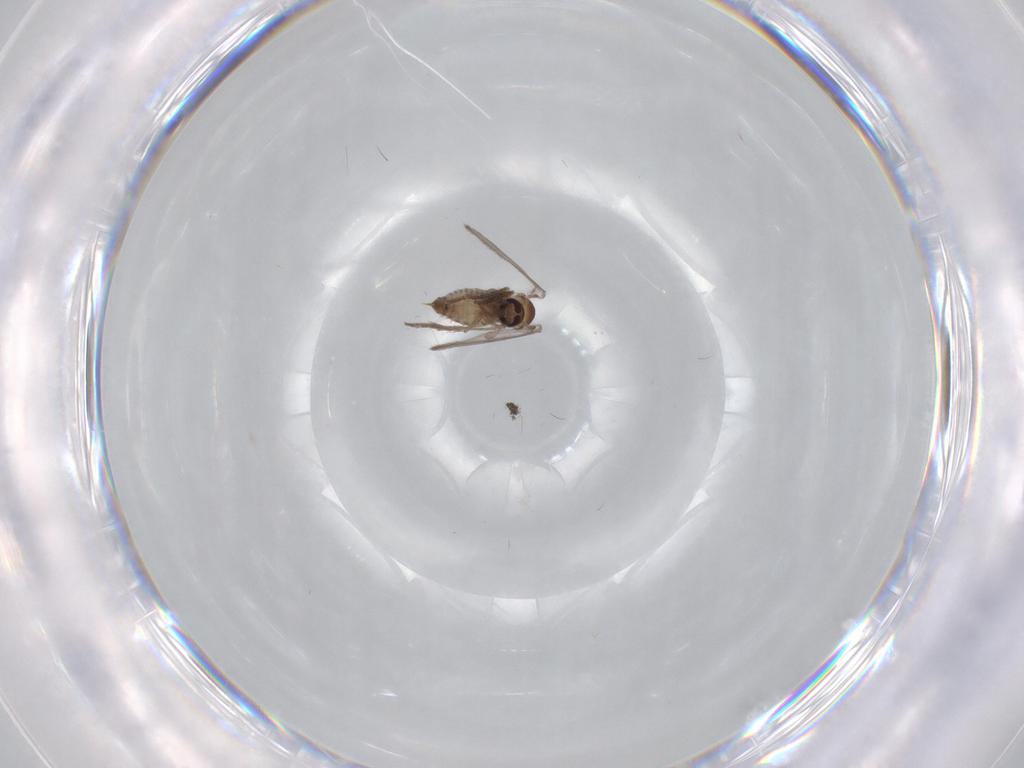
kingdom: Animalia
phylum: Arthropoda
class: Insecta
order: Diptera
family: Psychodidae
